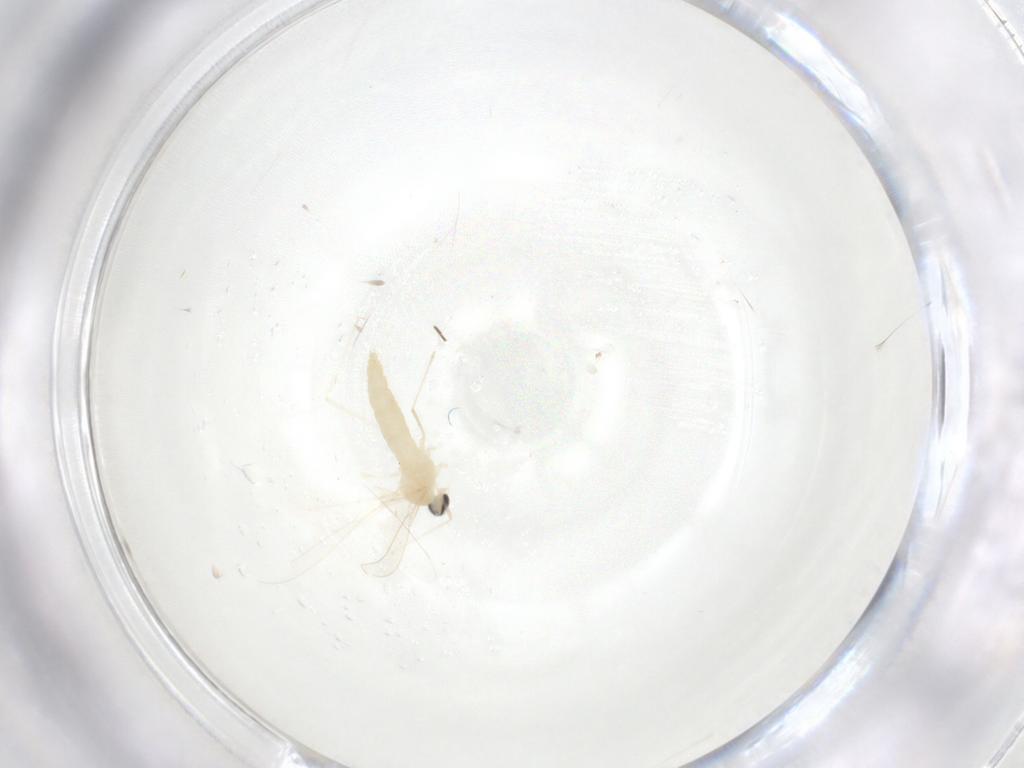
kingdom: Animalia
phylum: Arthropoda
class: Insecta
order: Diptera
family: Cecidomyiidae
